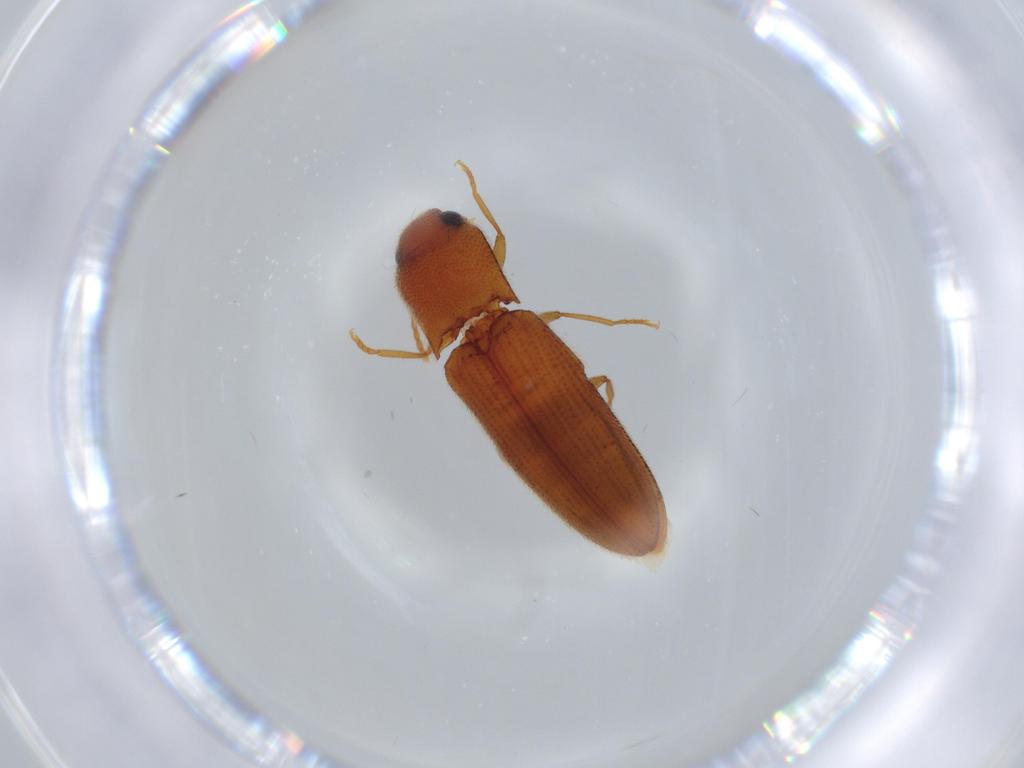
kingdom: Animalia
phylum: Arthropoda
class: Insecta
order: Coleoptera
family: Elateridae
